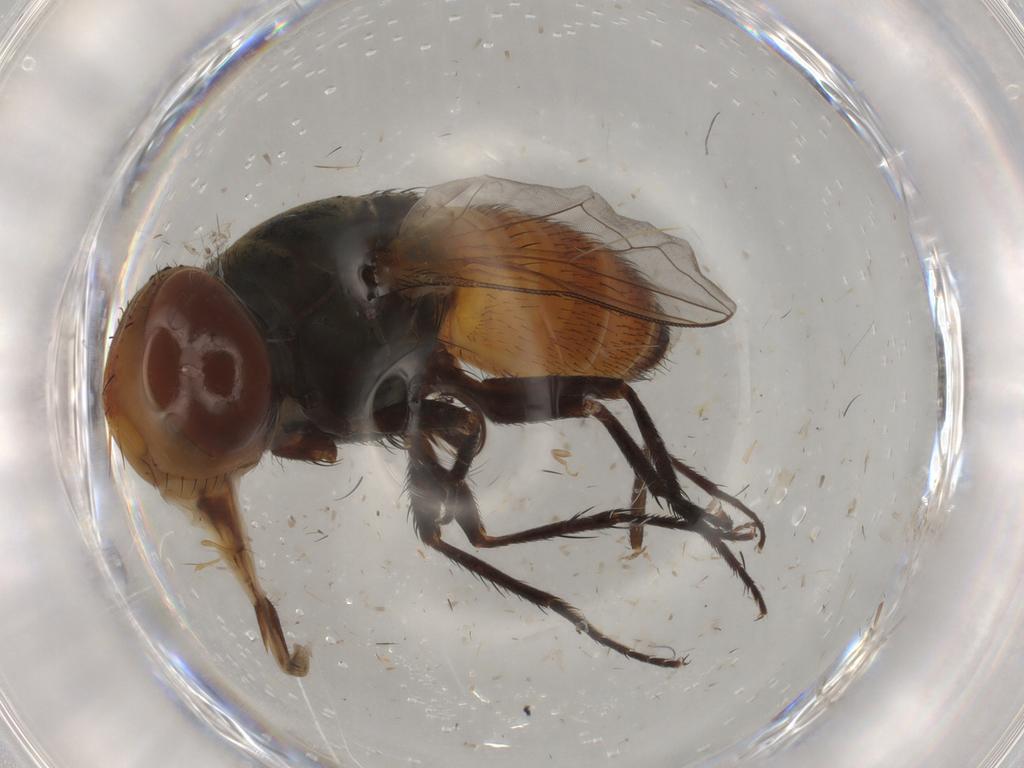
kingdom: Animalia
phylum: Arthropoda
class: Insecta
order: Diptera
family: Sarcophagidae
